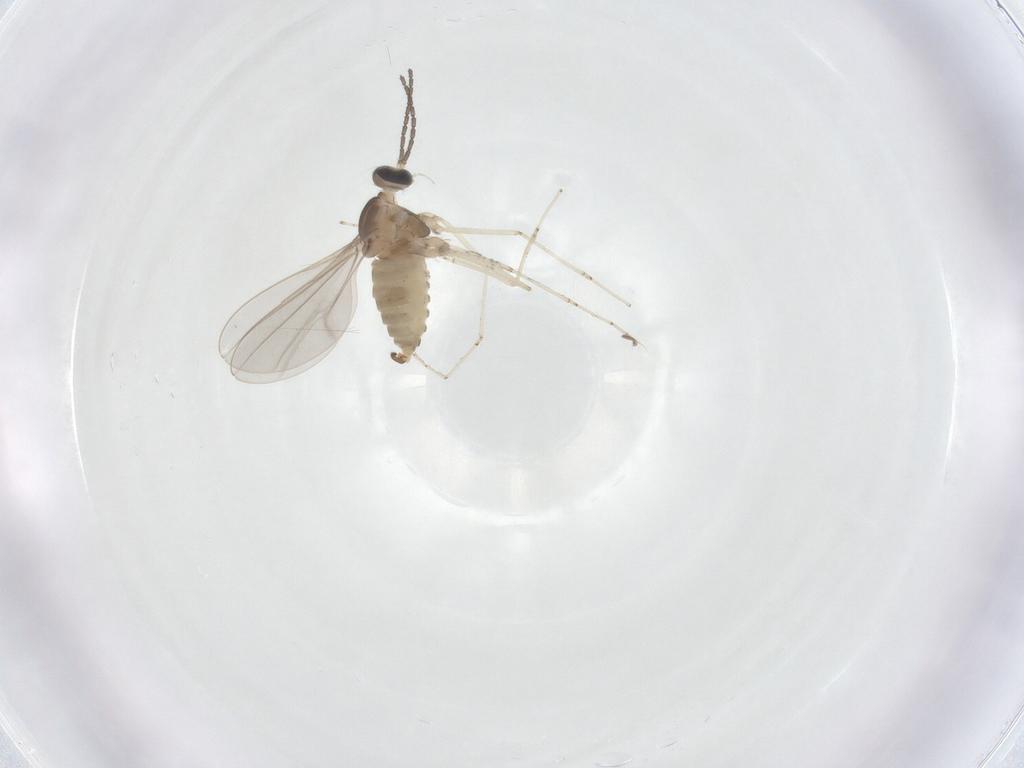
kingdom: Animalia
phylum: Arthropoda
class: Insecta
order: Diptera
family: Cecidomyiidae
